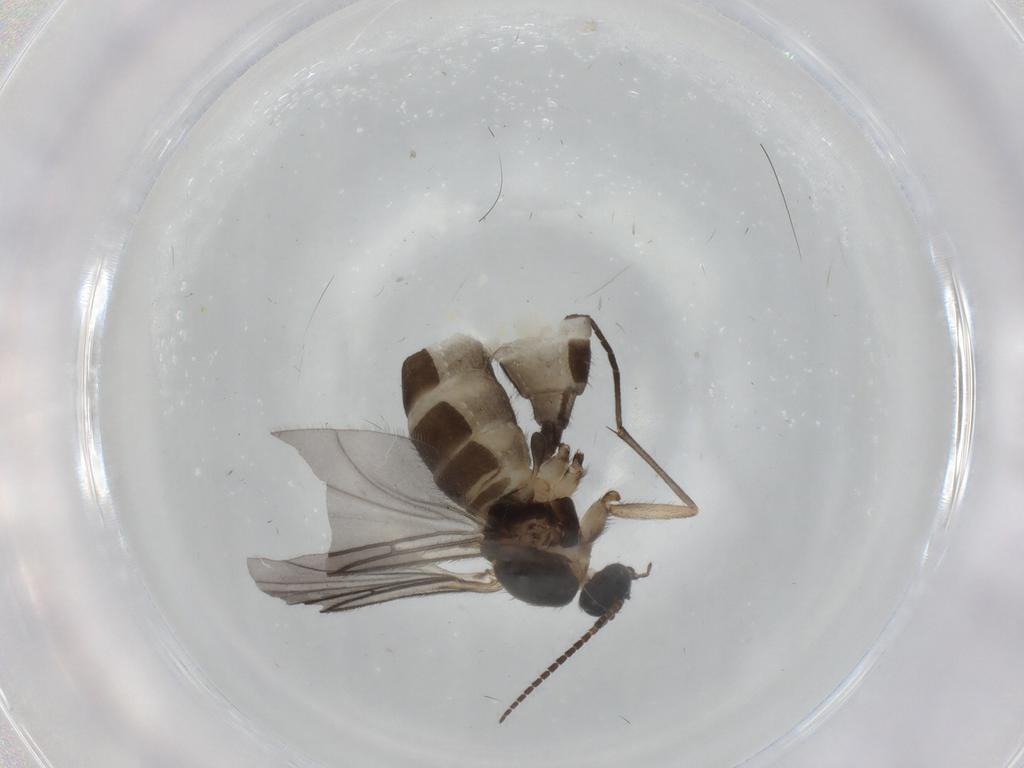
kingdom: Animalia
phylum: Arthropoda
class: Insecta
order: Diptera
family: Sciaridae
